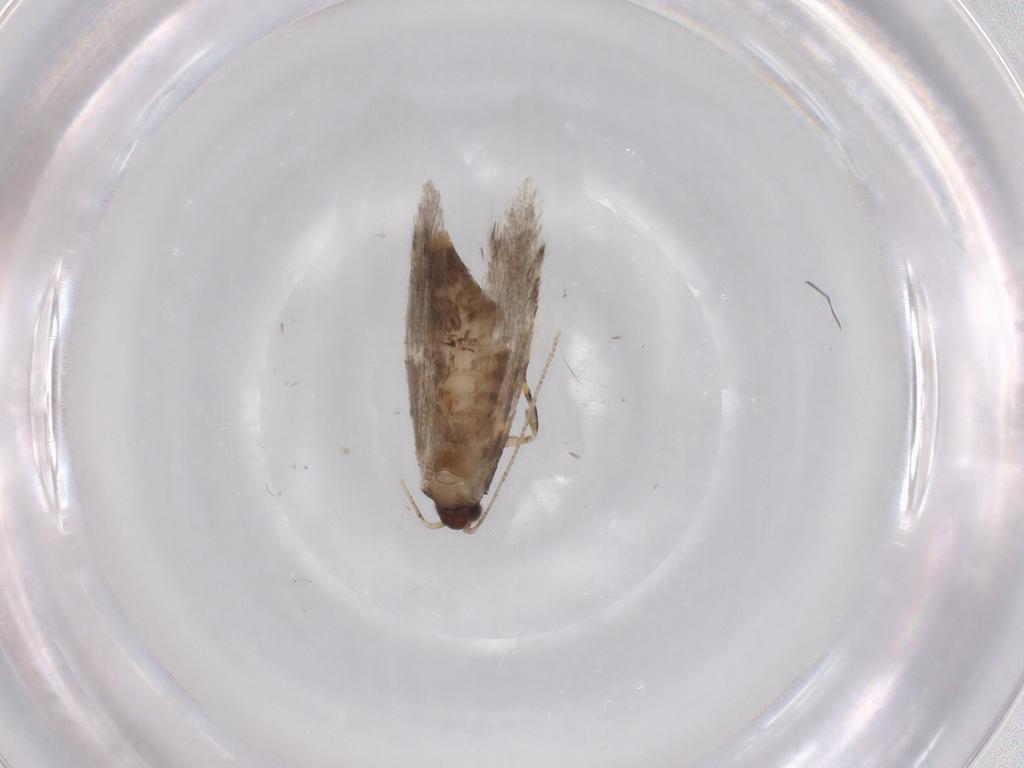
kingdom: Animalia
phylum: Arthropoda
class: Insecta
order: Lepidoptera
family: Tineidae
